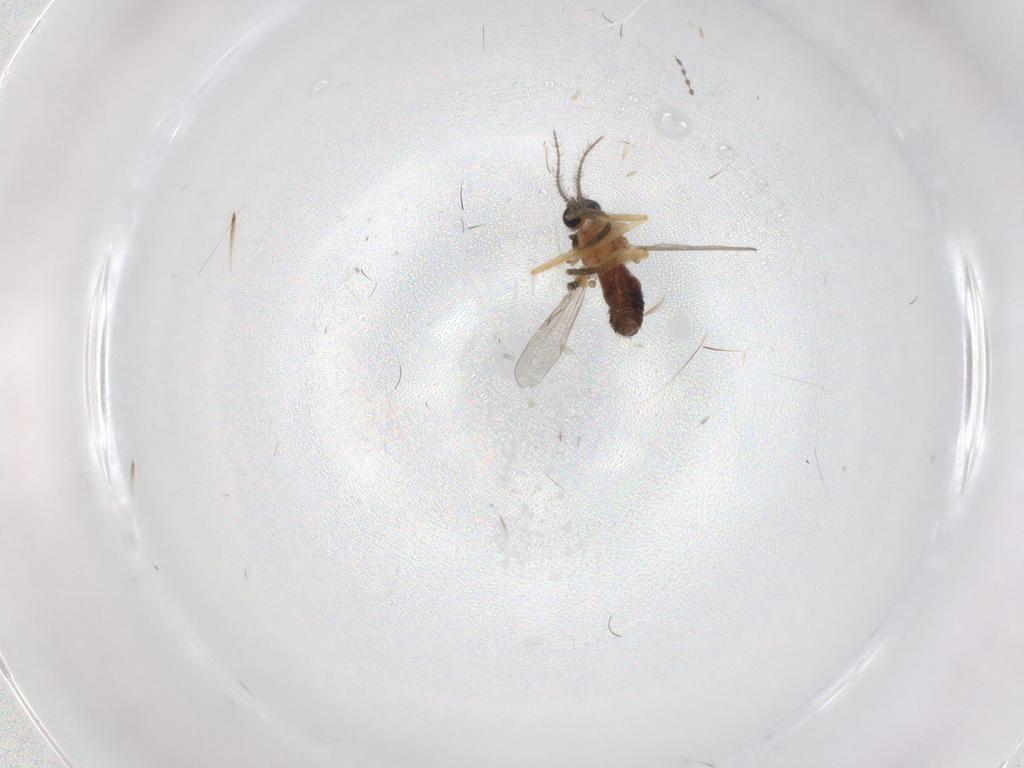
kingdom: Animalia
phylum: Arthropoda
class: Insecta
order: Diptera
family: Ceratopogonidae
